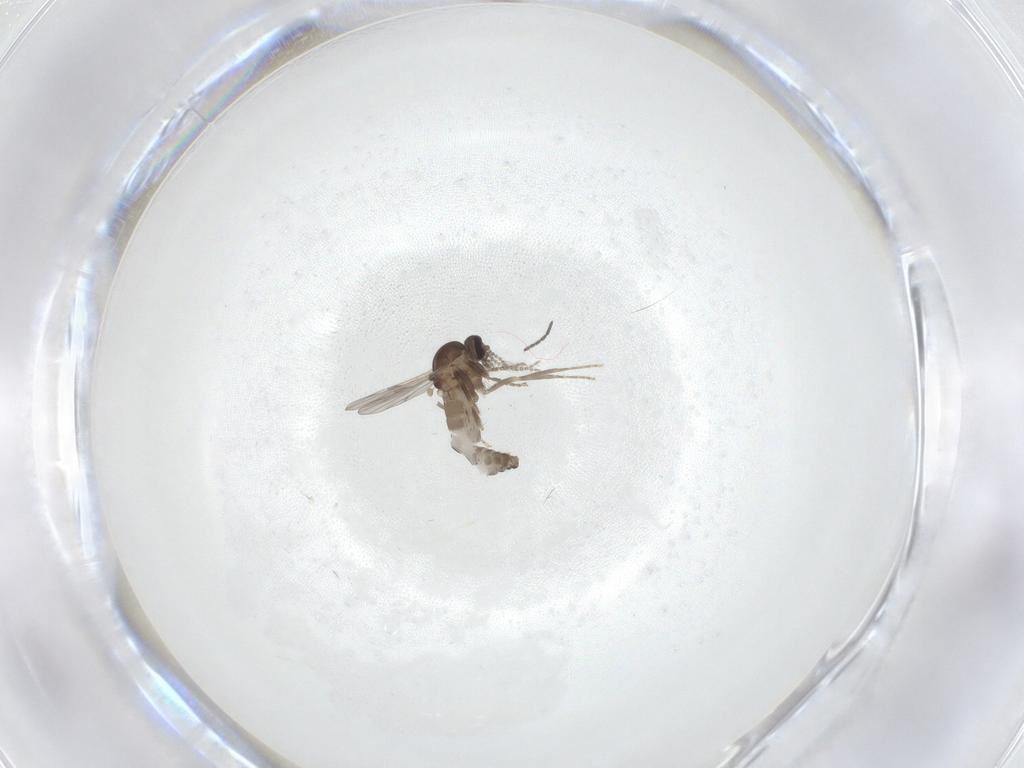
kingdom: Animalia
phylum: Arthropoda
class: Insecta
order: Diptera
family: Ceratopogonidae
